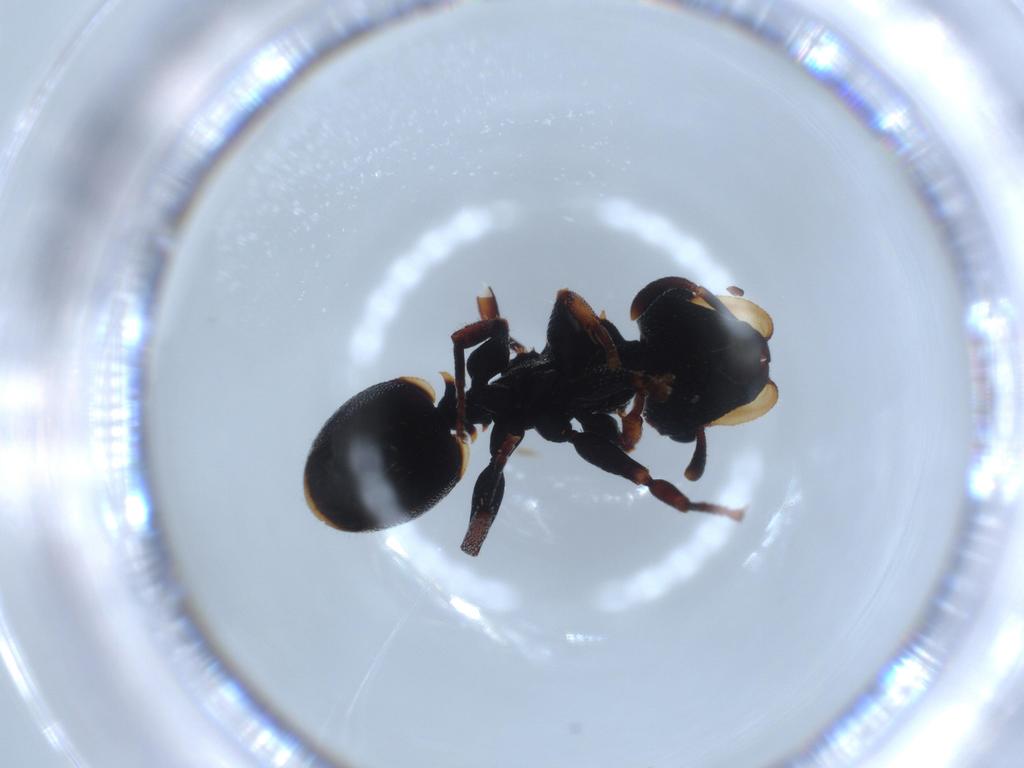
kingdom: Animalia
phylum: Arthropoda
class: Insecta
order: Hymenoptera
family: Formicidae
